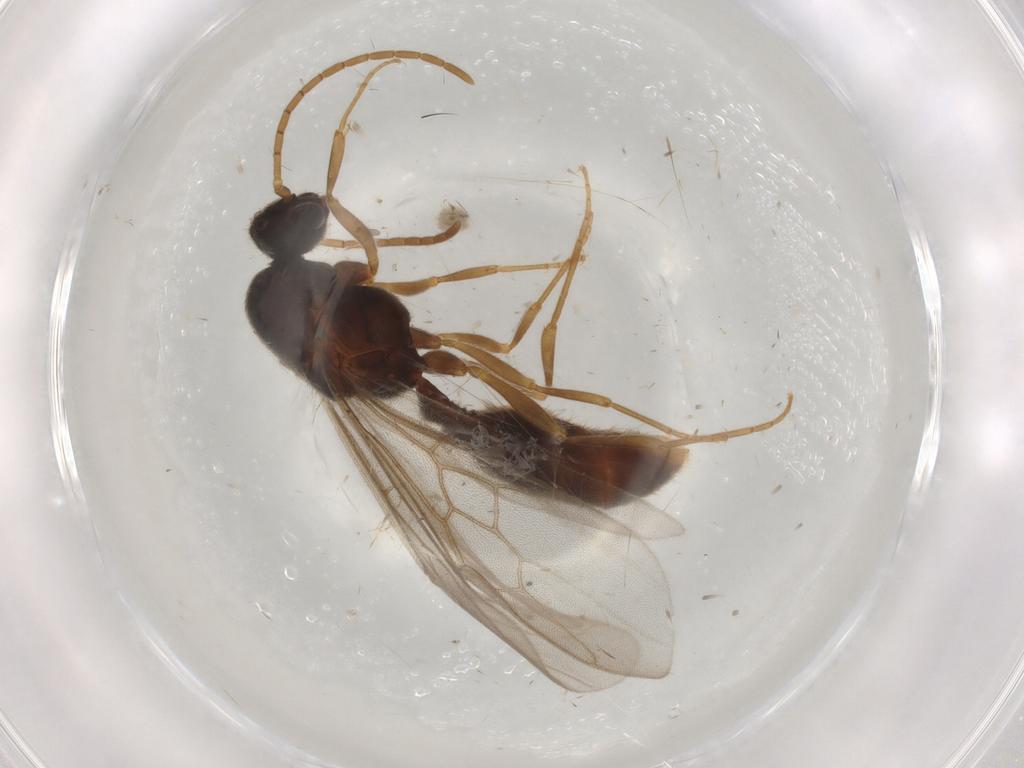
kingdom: Animalia
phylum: Arthropoda
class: Insecta
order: Hymenoptera
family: Formicidae
